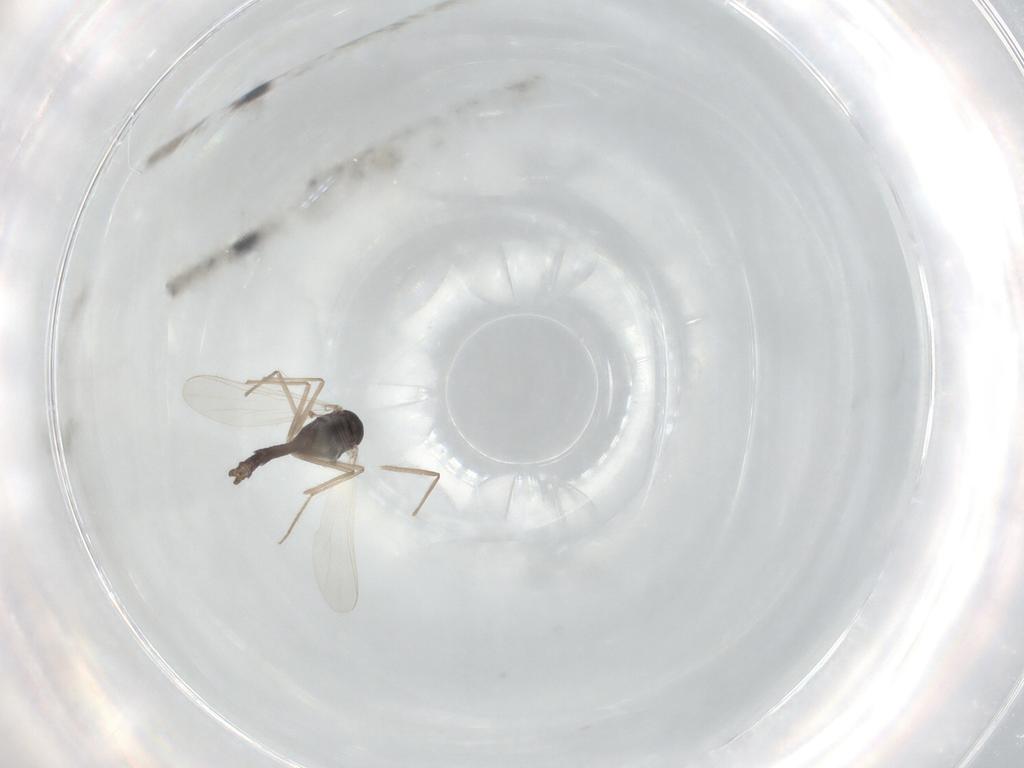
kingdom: Animalia
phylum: Arthropoda
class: Insecta
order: Diptera
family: Chironomidae
